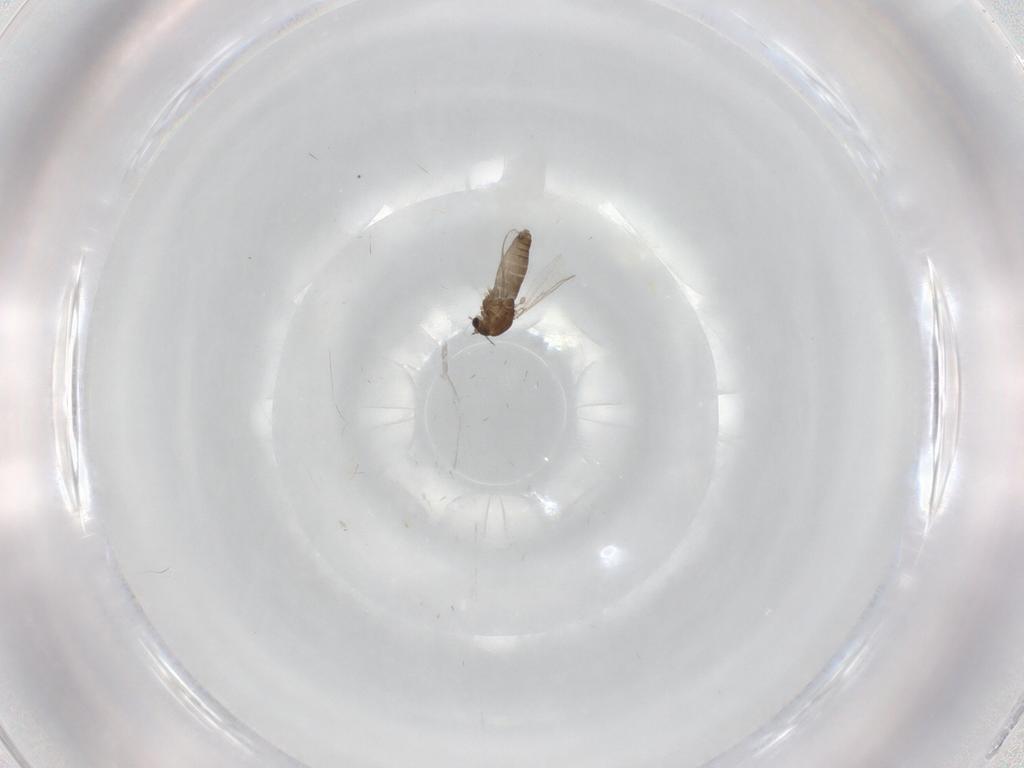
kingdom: Animalia
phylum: Arthropoda
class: Insecta
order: Diptera
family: Chironomidae
